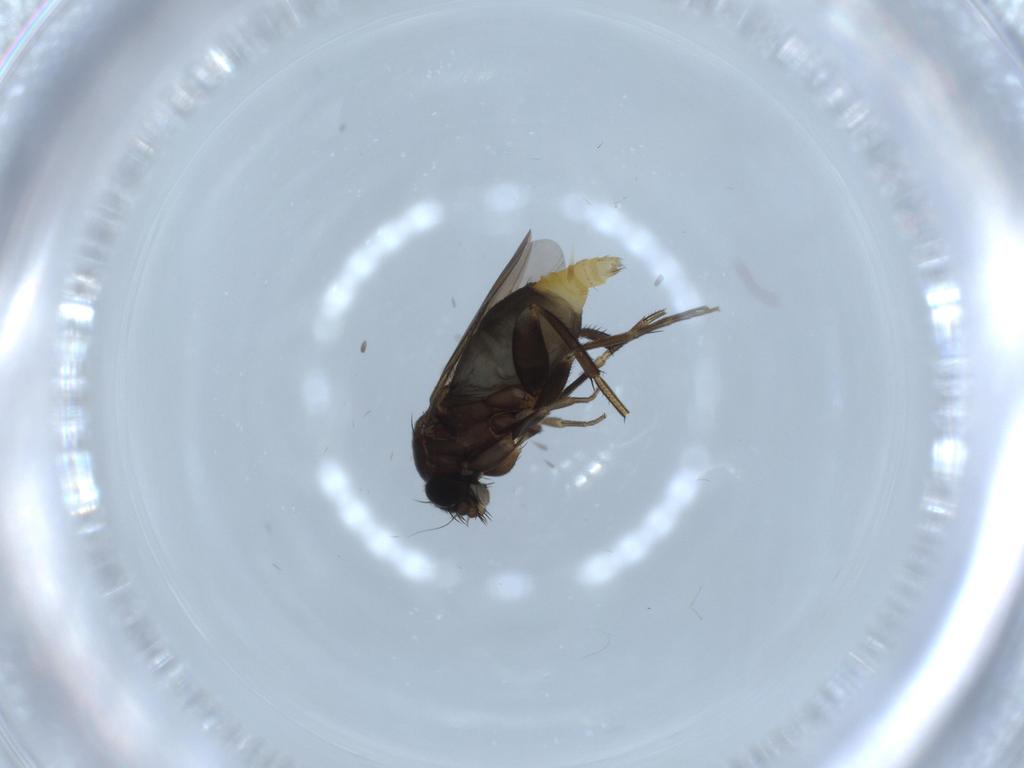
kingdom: Animalia
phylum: Arthropoda
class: Insecta
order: Diptera
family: Phoridae
